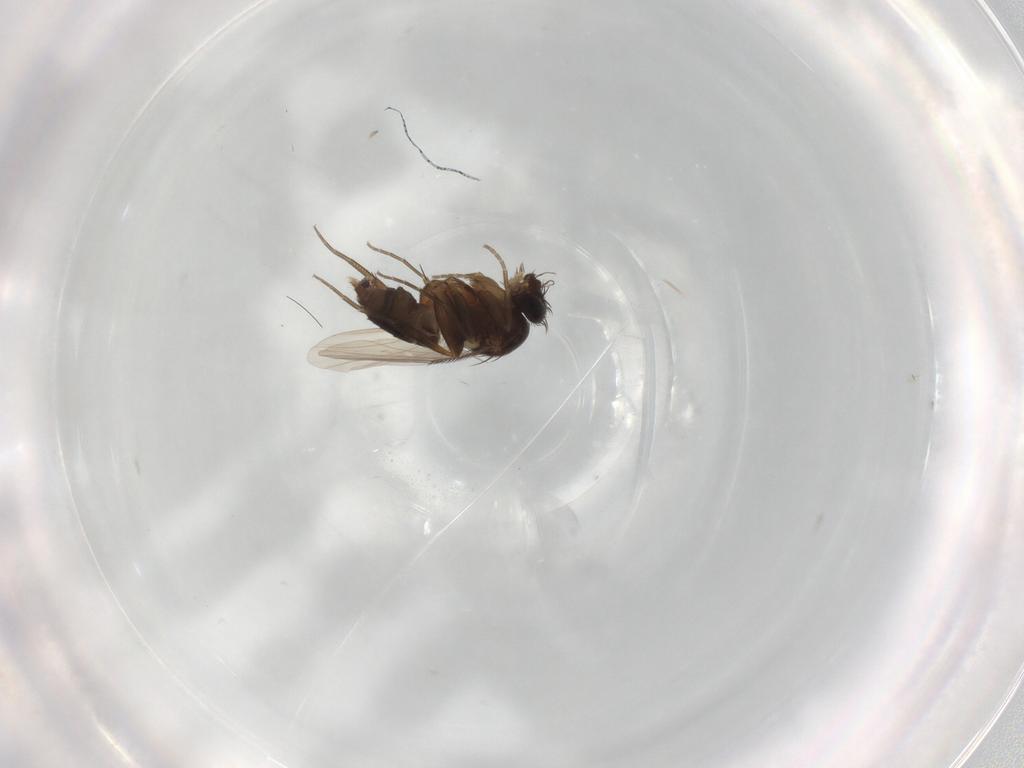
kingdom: Animalia
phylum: Arthropoda
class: Insecta
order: Diptera
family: Phoridae
